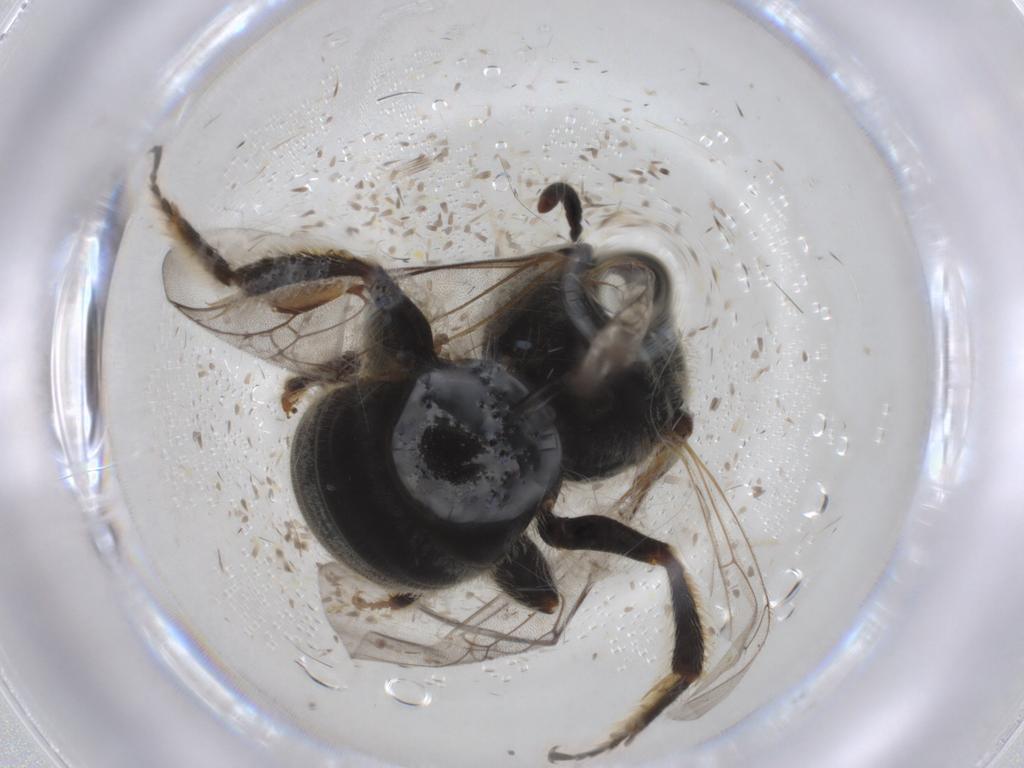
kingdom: Animalia
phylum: Arthropoda
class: Insecta
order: Hymenoptera
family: Halictidae
